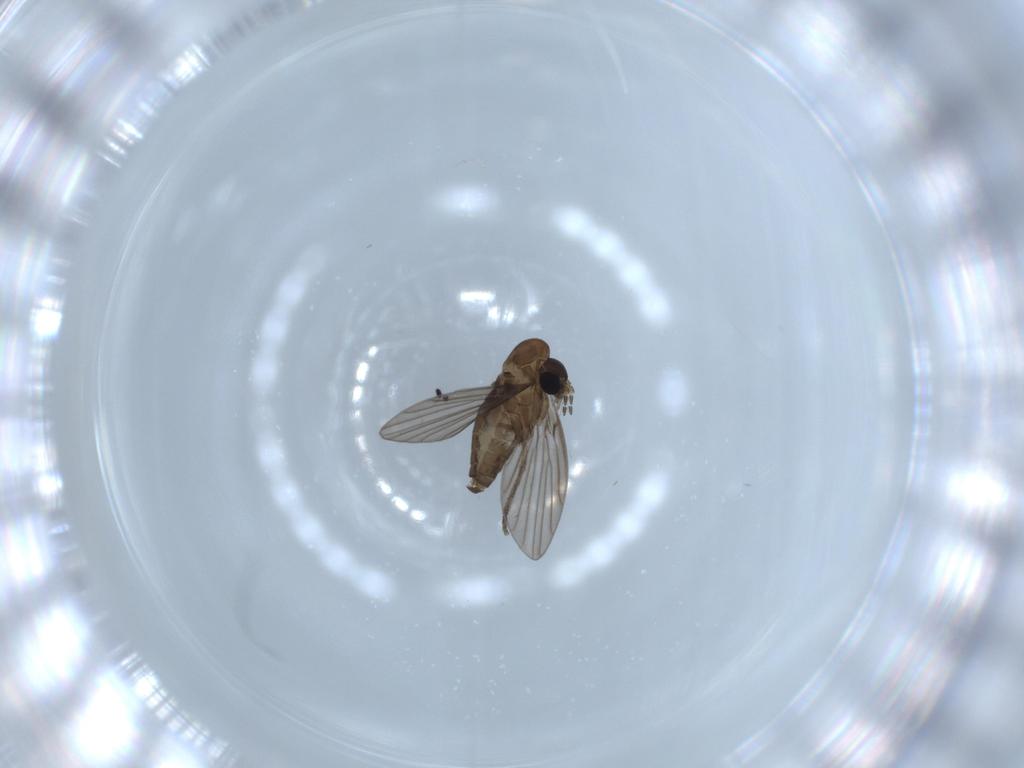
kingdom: Animalia
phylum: Arthropoda
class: Insecta
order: Diptera
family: Psychodidae
